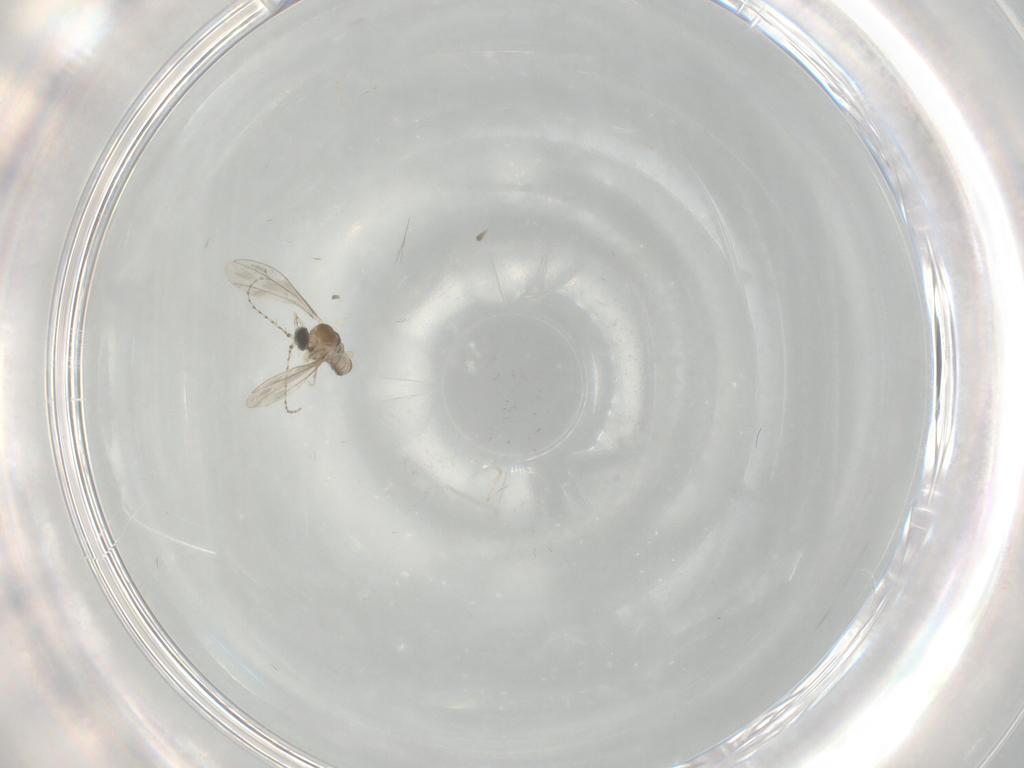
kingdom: Animalia
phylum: Arthropoda
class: Insecta
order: Diptera
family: Cecidomyiidae
